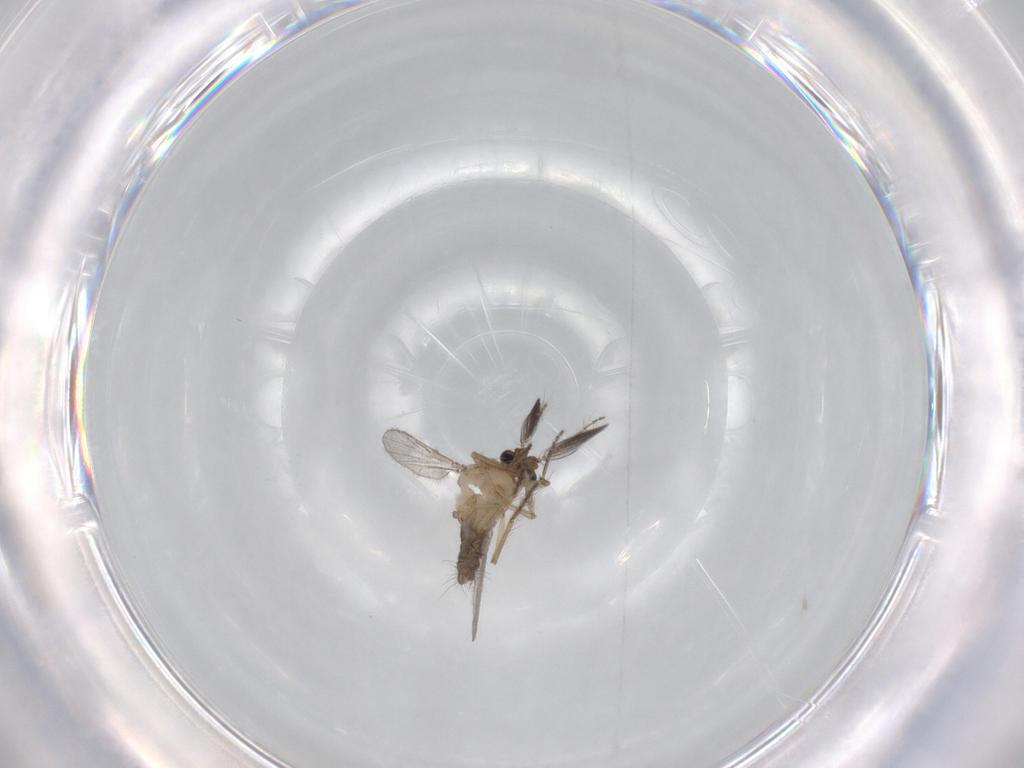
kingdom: Animalia
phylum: Arthropoda
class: Insecta
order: Diptera
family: Ceratopogonidae
